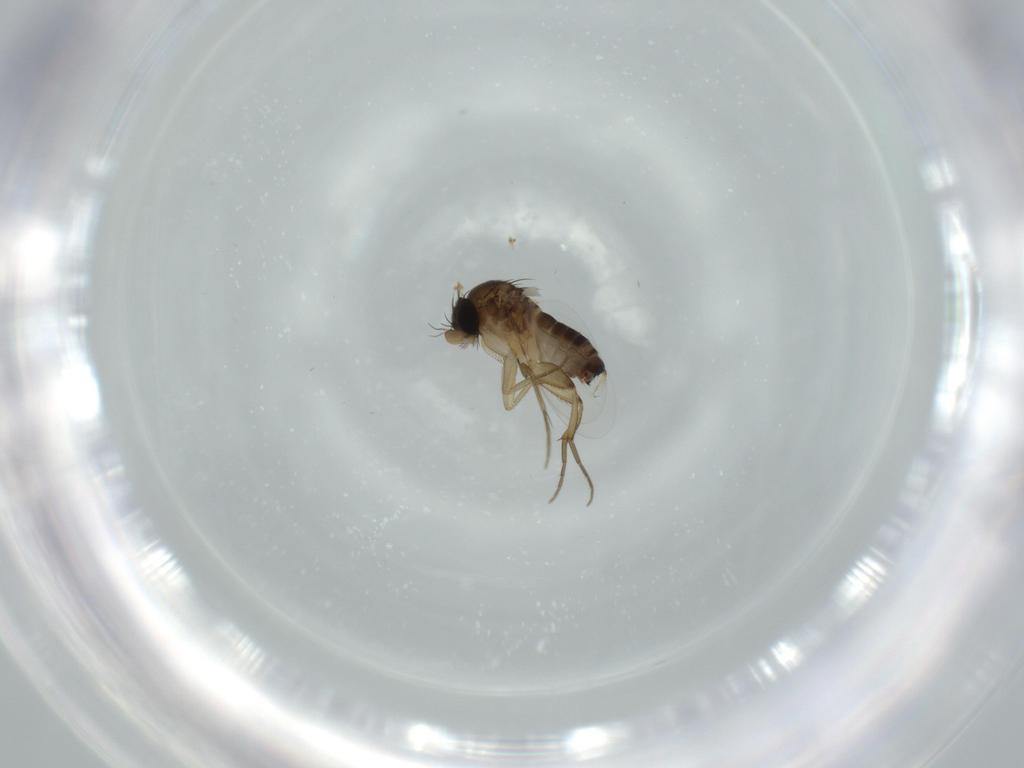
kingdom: Animalia
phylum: Arthropoda
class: Insecta
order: Diptera
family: Phoridae
